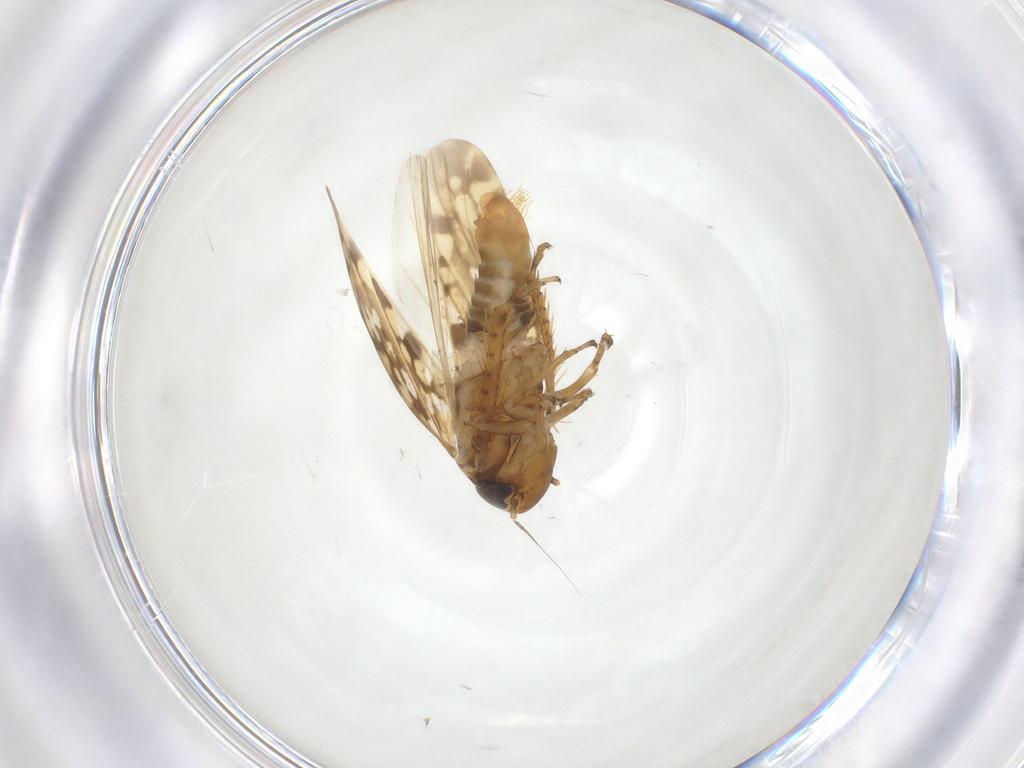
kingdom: Animalia
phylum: Arthropoda
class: Insecta
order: Hemiptera
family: Cicadellidae
